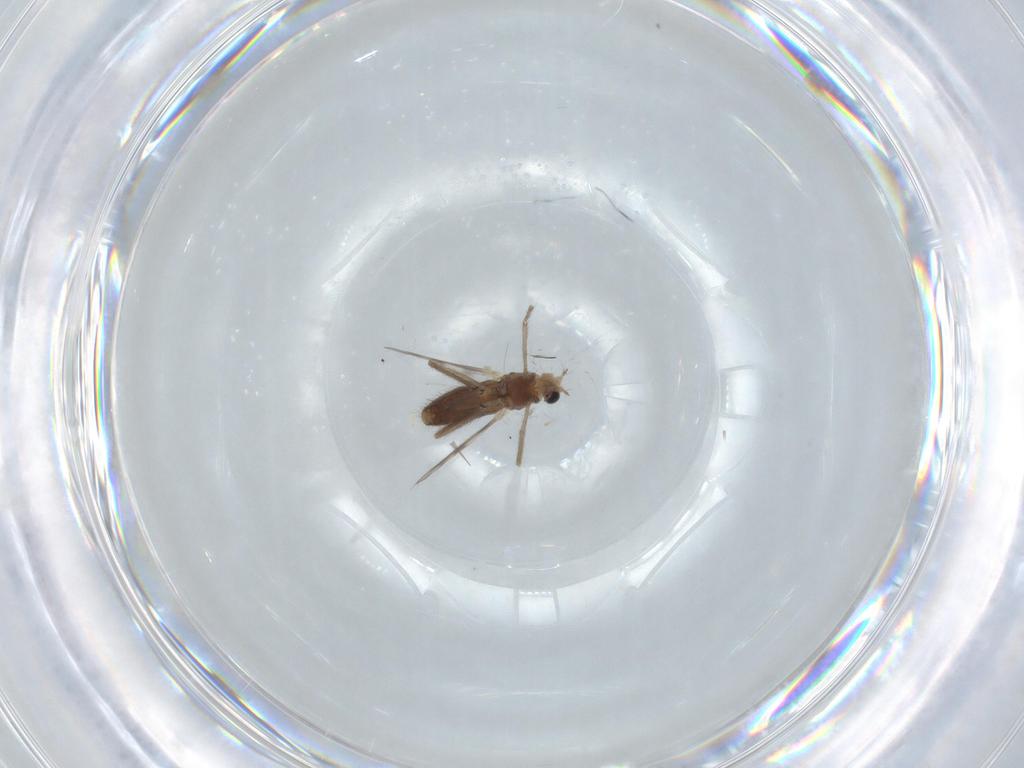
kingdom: Animalia
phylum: Arthropoda
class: Insecta
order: Diptera
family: Chironomidae
